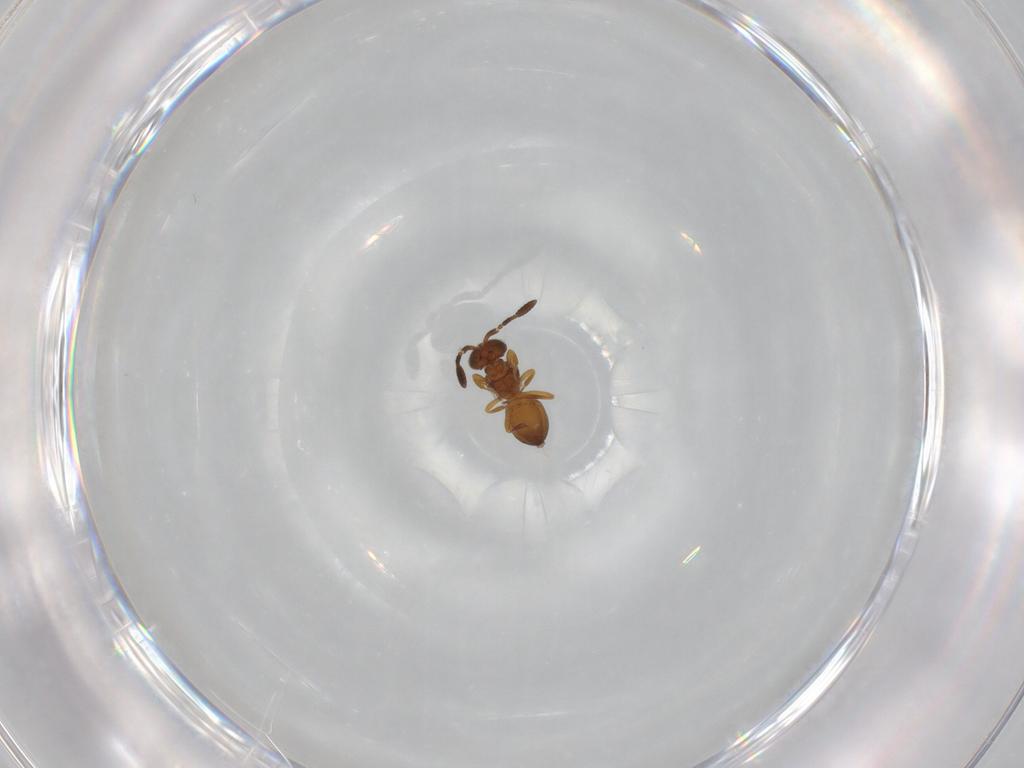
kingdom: Animalia
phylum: Arthropoda
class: Insecta
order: Hymenoptera
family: Scelionidae
